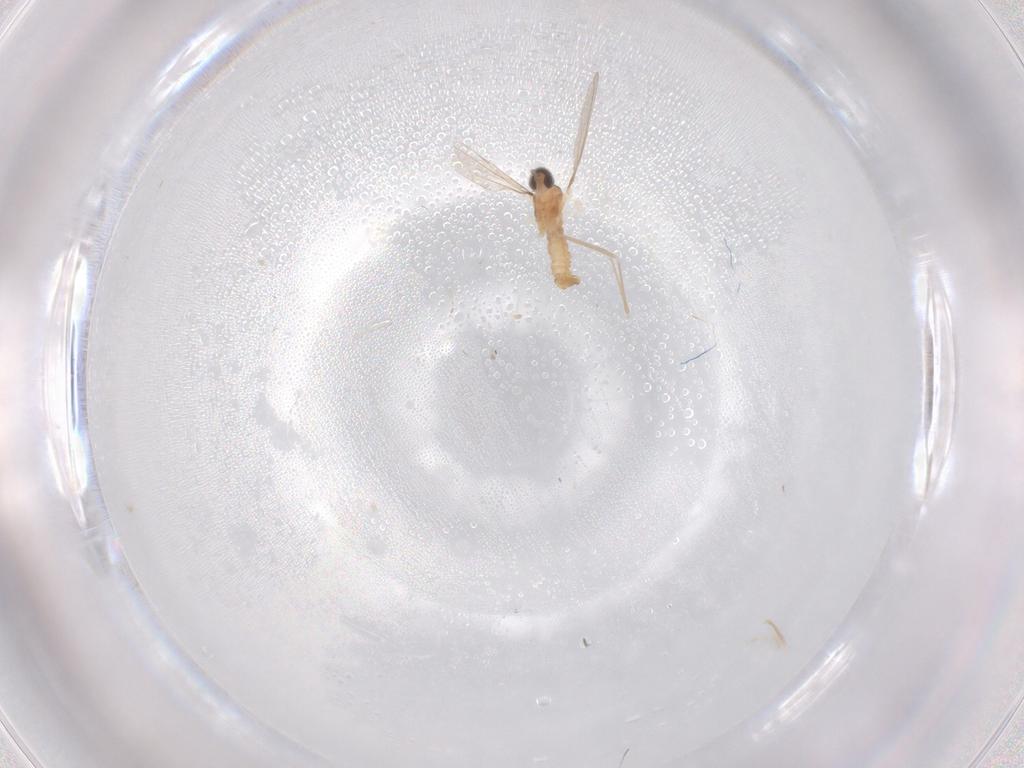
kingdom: Animalia
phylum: Arthropoda
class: Insecta
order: Diptera
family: Cecidomyiidae
